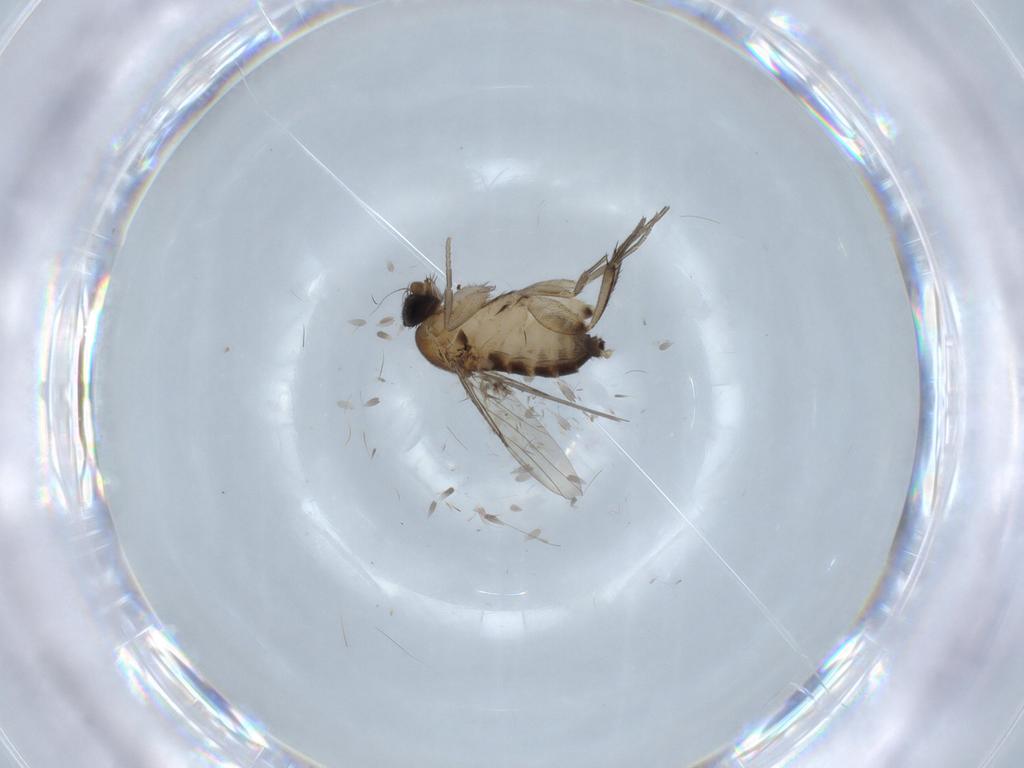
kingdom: Animalia
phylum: Arthropoda
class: Insecta
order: Diptera
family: Phoridae
